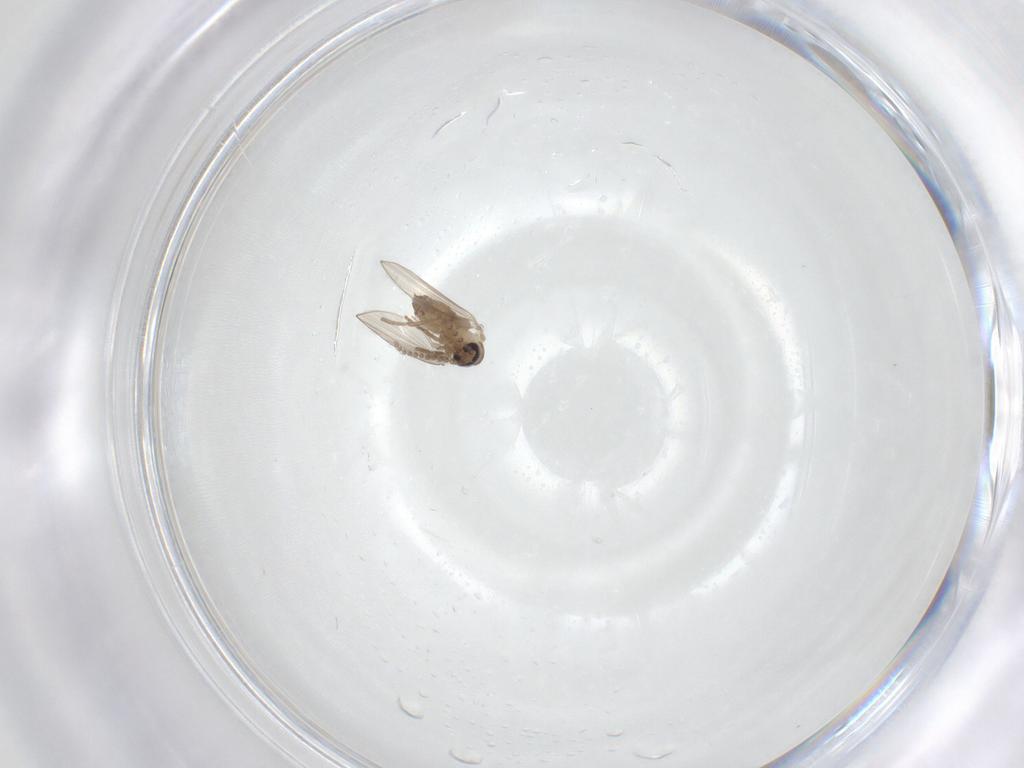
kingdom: Animalia
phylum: Arthropoda
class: Insecta
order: Diptera
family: Psychodidae
